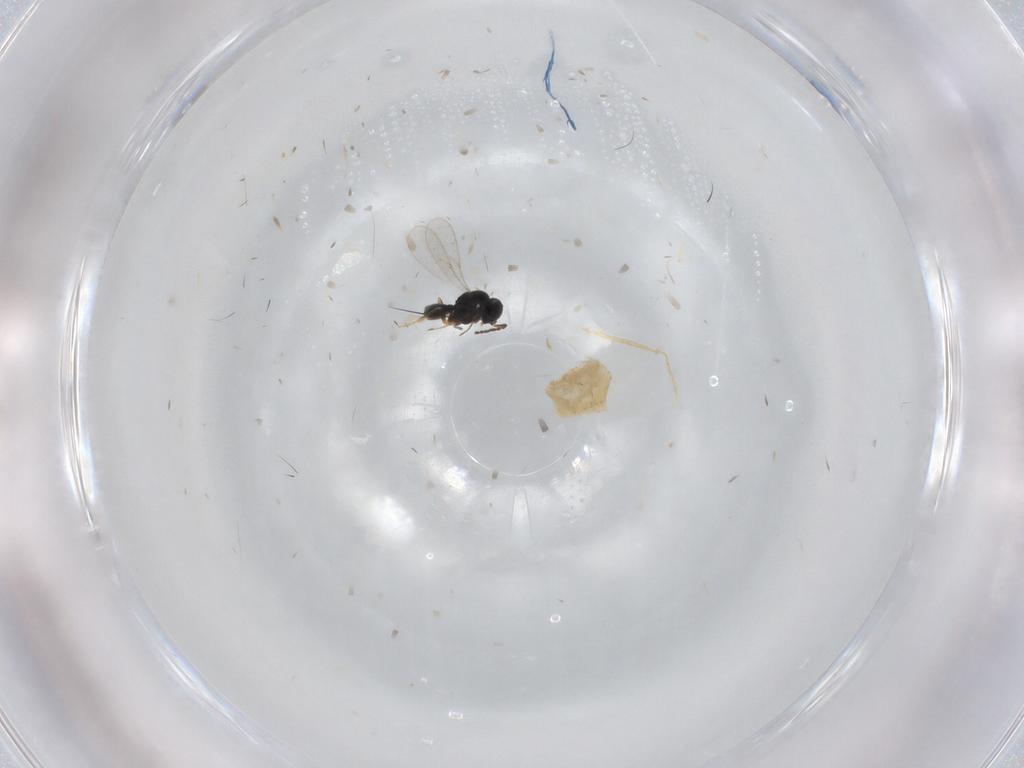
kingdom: Animalia
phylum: Arthropoda
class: Insecta
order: Hymenoptera
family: Scelionidae
